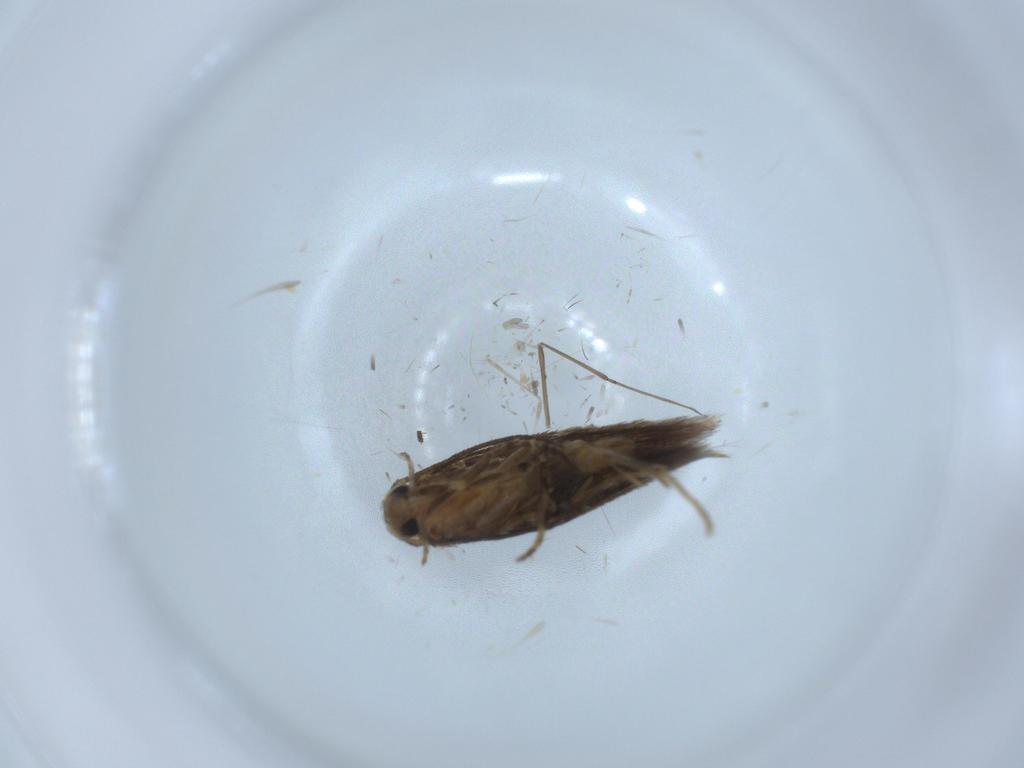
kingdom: Animalia
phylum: Arthropoda
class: Insecta
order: Lepidoptera
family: Elachistidae
